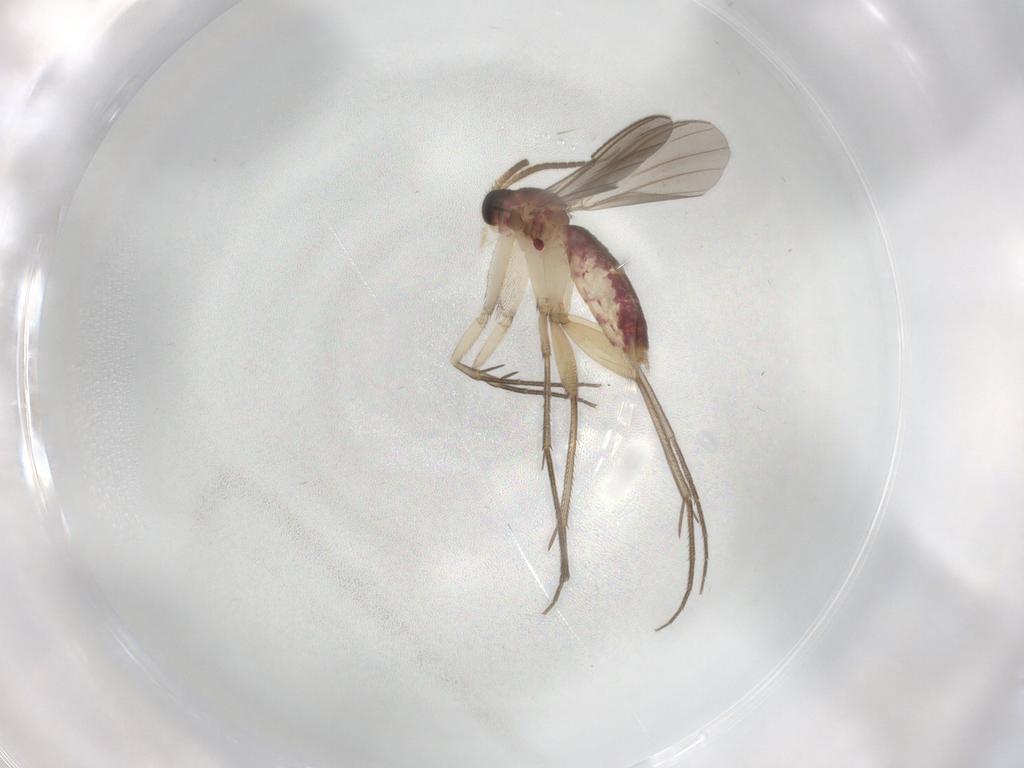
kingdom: Animalia
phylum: Arthropoda
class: Insecta
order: Diptera
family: Mycetophilidae
